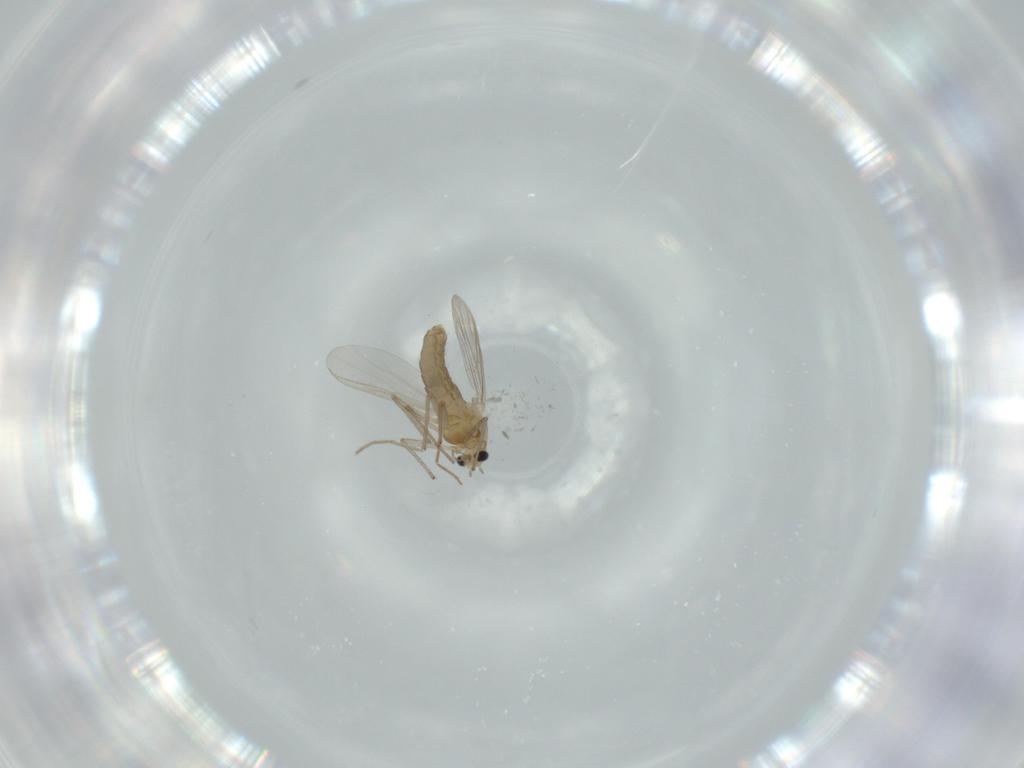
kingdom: Animalia
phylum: Arthropoda
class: Insecta
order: Diptera
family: Chironomidae
